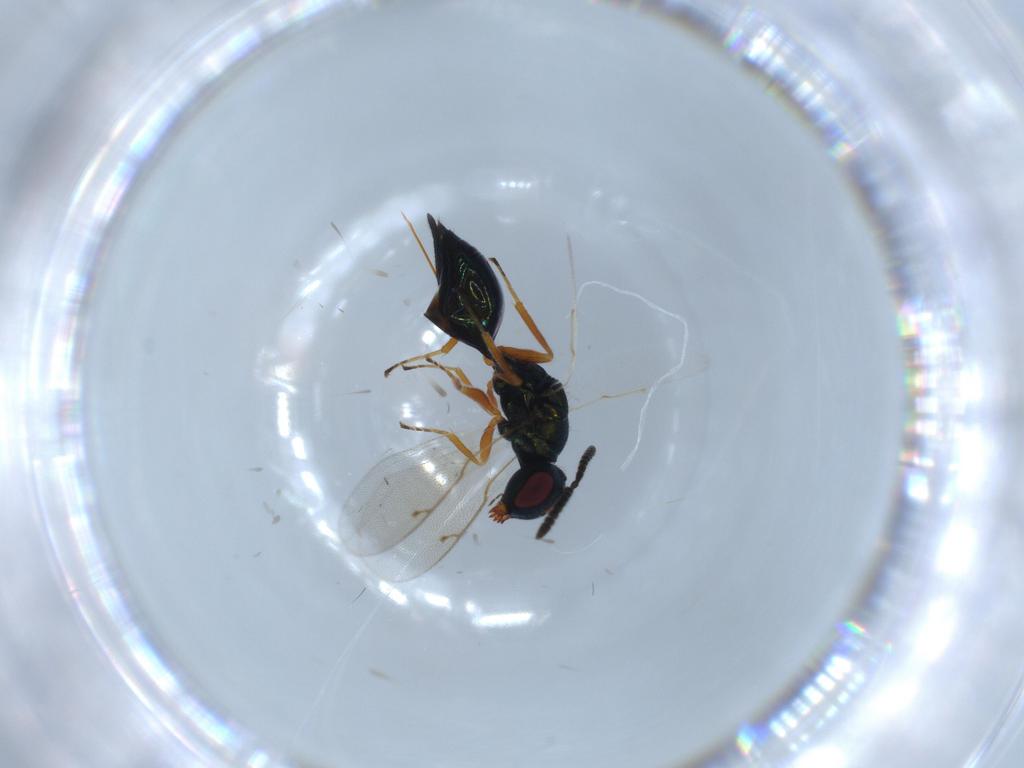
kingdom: Animalia
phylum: Arthropoda
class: Insecta
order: Hymenoptera
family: Pteromalidae
